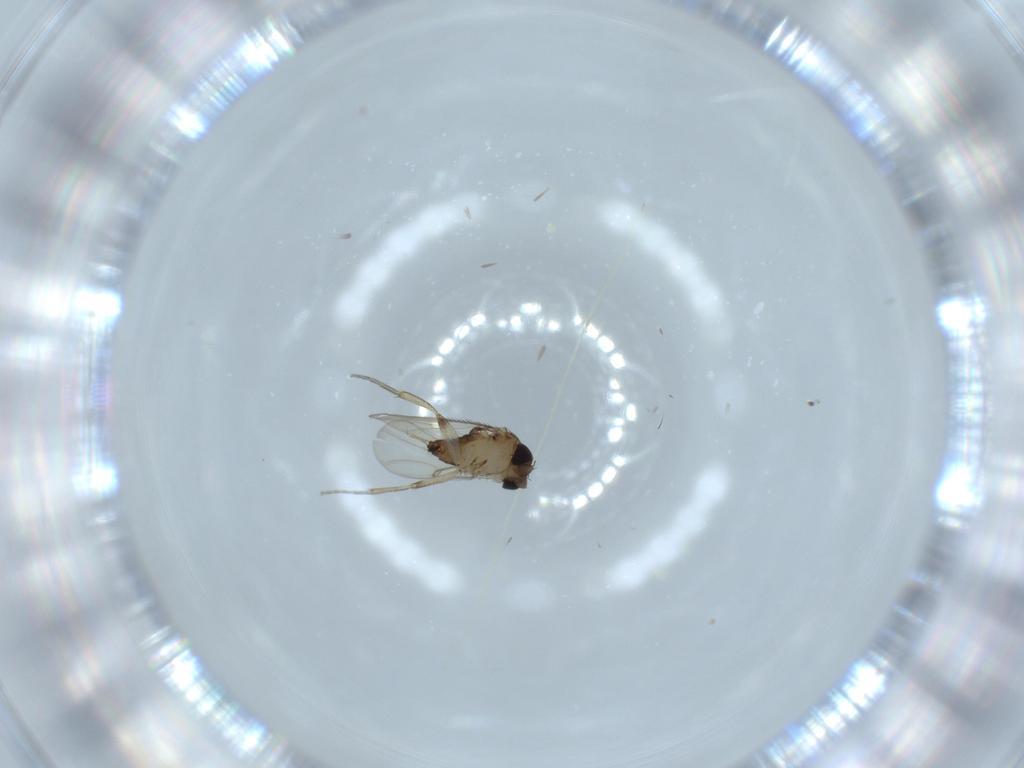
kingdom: Animalia
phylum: Arthropoda
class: Insecta
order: Diptera
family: Phoridae
